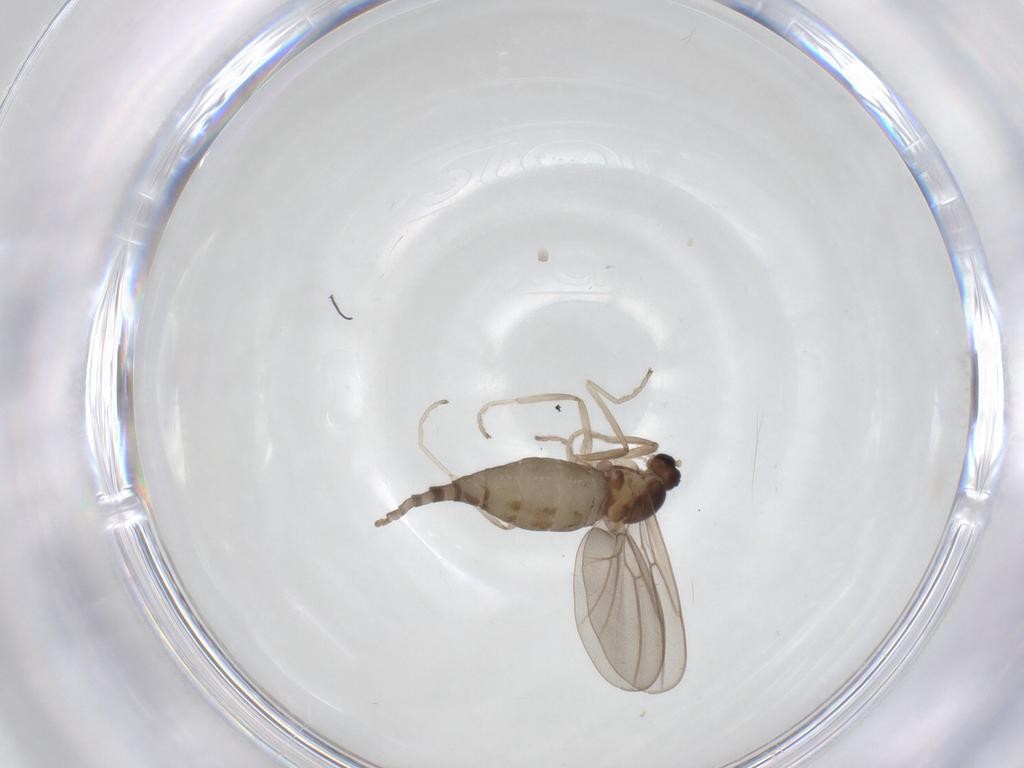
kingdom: Animalia
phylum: Arthropoda
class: Insecta
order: Diptera
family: Cecidomyiidae
